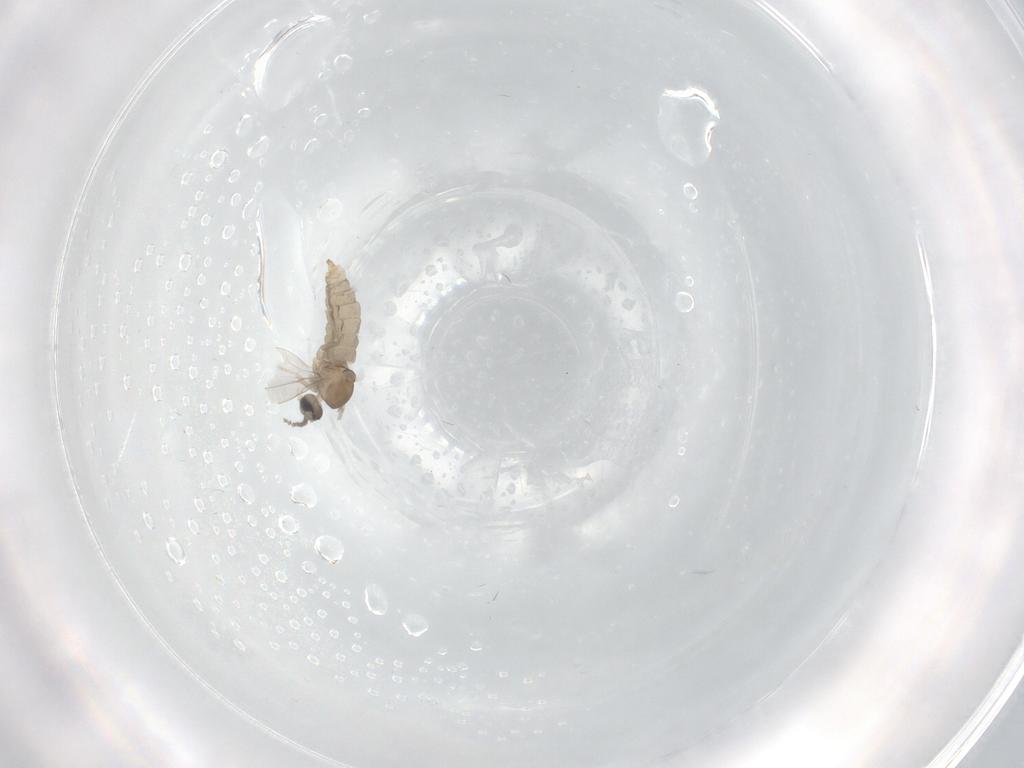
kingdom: Animalia
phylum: Arthropoda
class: Insecta
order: Diptera
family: Cecidomyiidae
